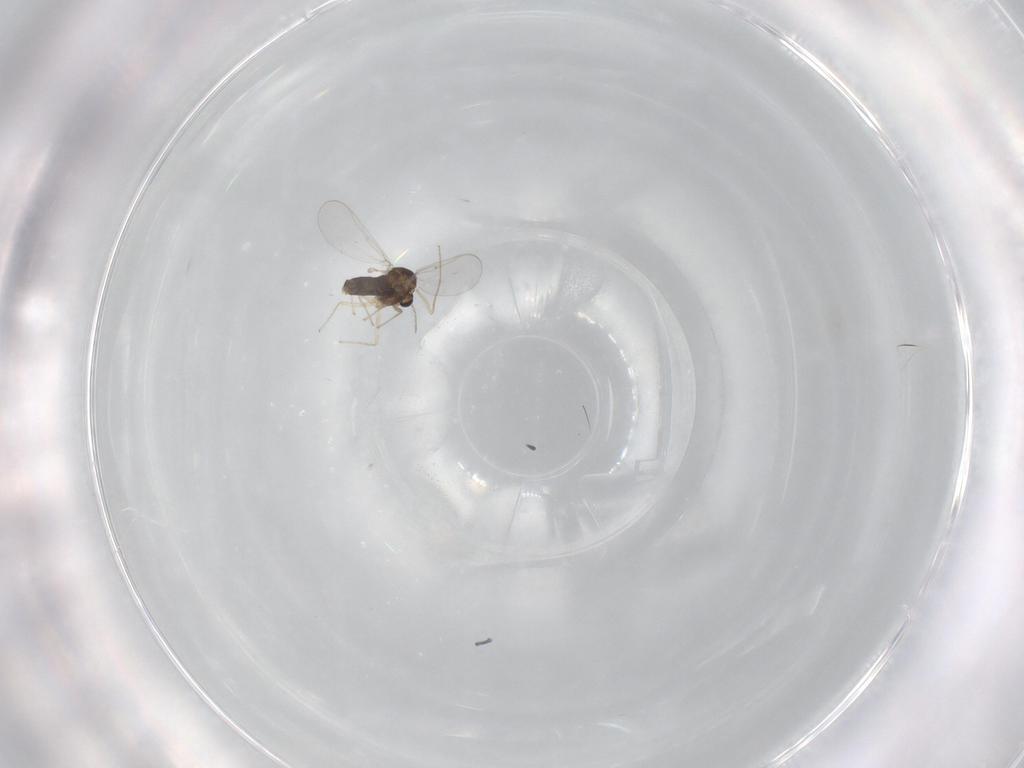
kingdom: Animalia
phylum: Arthropoda
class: Insecta
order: Diptera
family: Chironomidae
